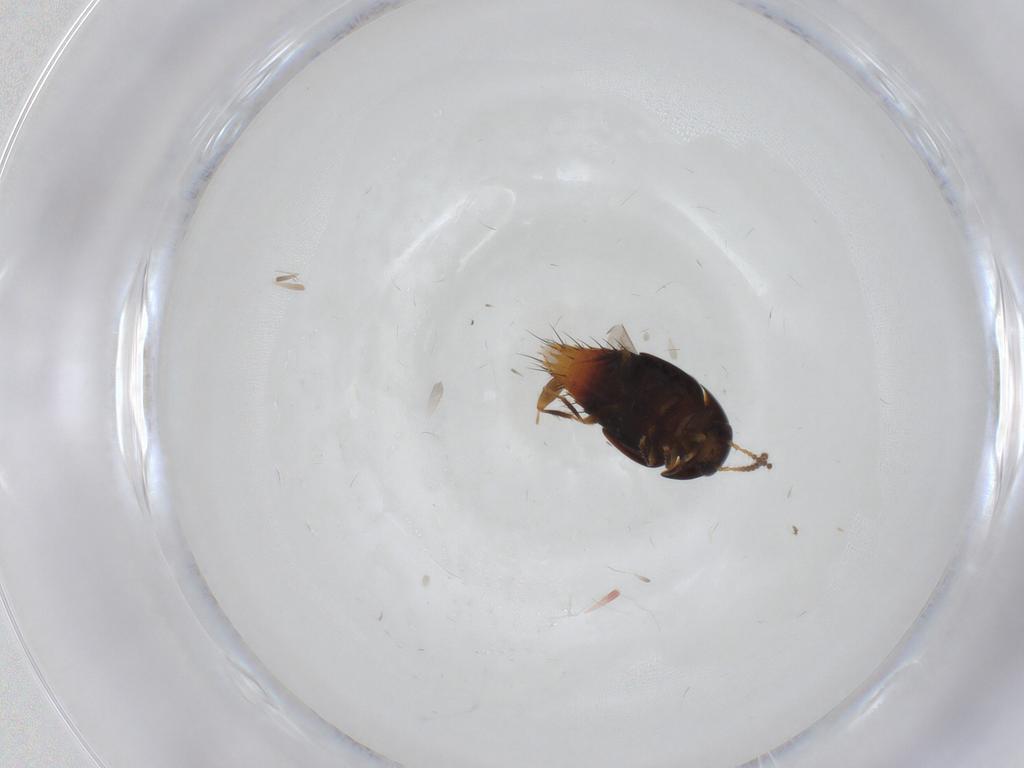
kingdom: Animalia
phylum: Arthropoda
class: Insecta
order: Coleoptera
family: Staphylinidae
